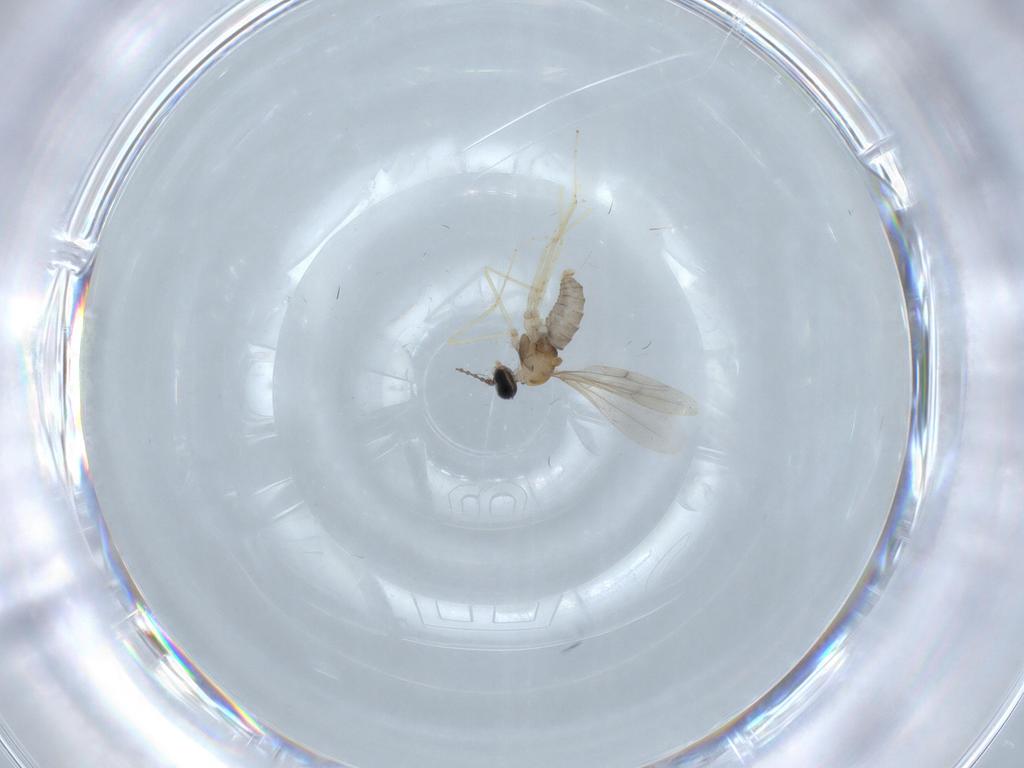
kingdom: Animalia
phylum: Arthropoda
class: Insecta
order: Diptera
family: Cecidomyiidae
